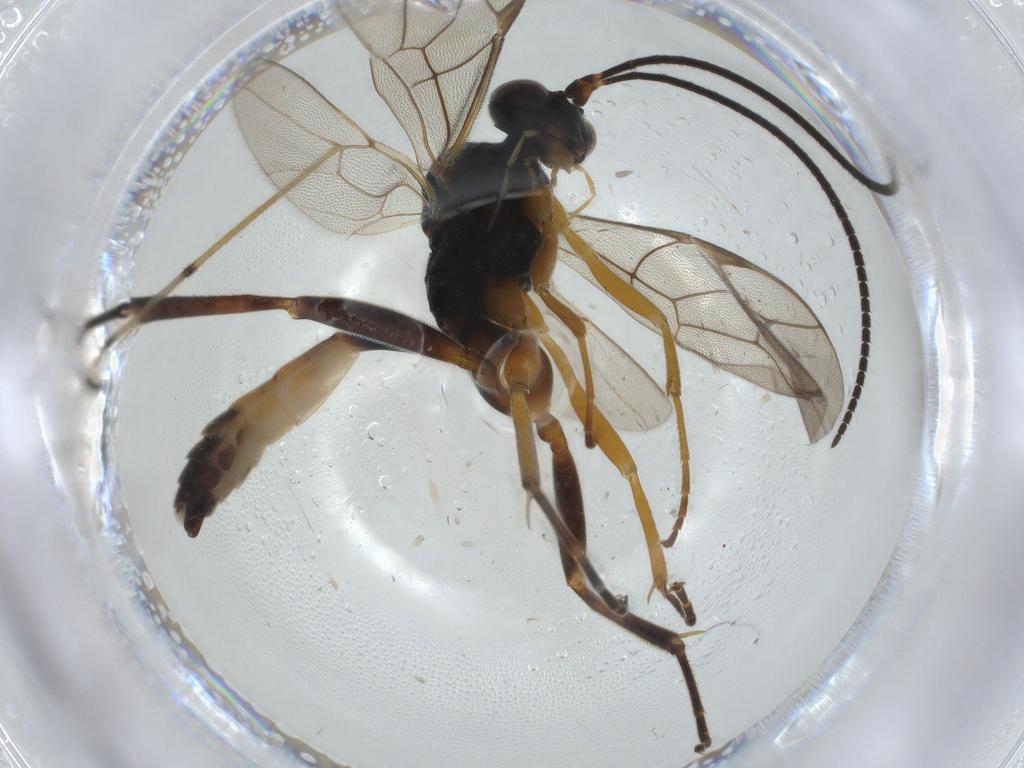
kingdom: Animalia
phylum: Arthropoda
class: Insecta
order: Hymenoptera
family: Ichneumonidae
